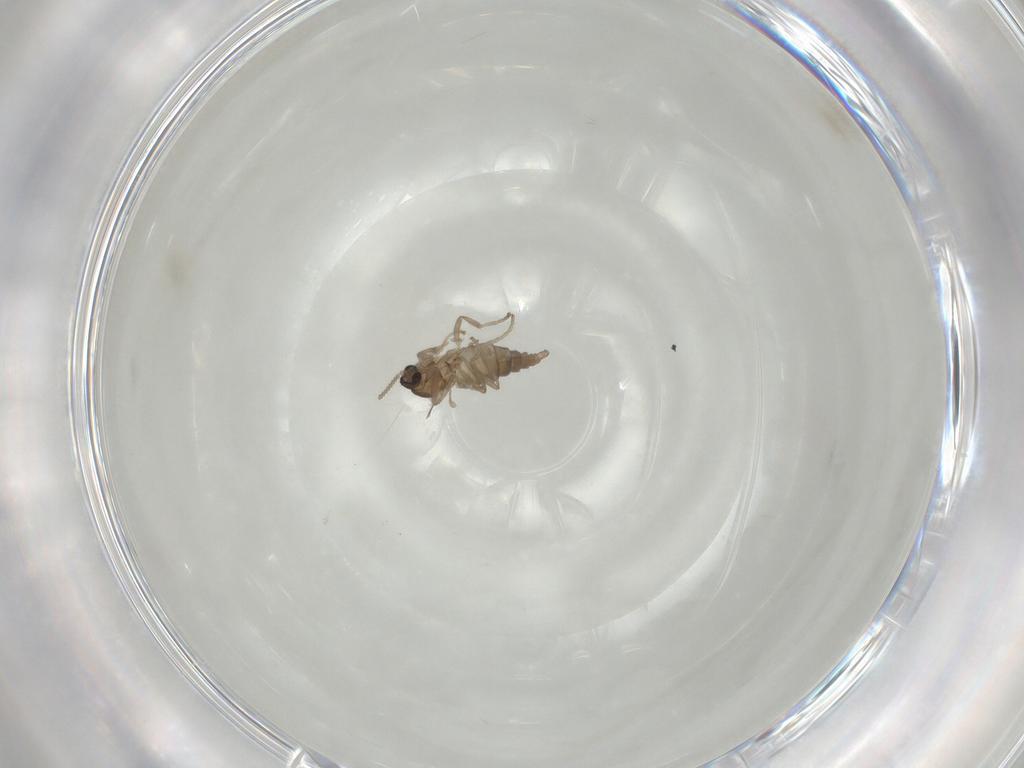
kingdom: Animalia
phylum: Arthropoda
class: Insecta
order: Diptera
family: Cecidomyiidae
